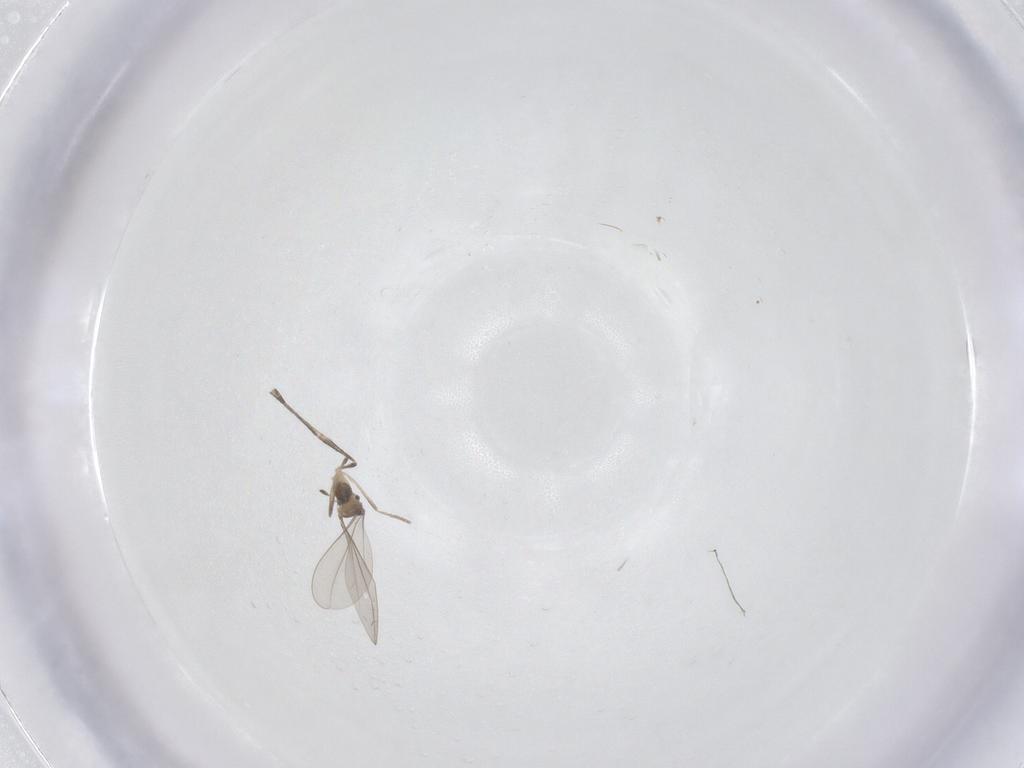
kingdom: Animalia
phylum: Arthropoda
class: Insecta
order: Diptera
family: Sphaeroceridae
